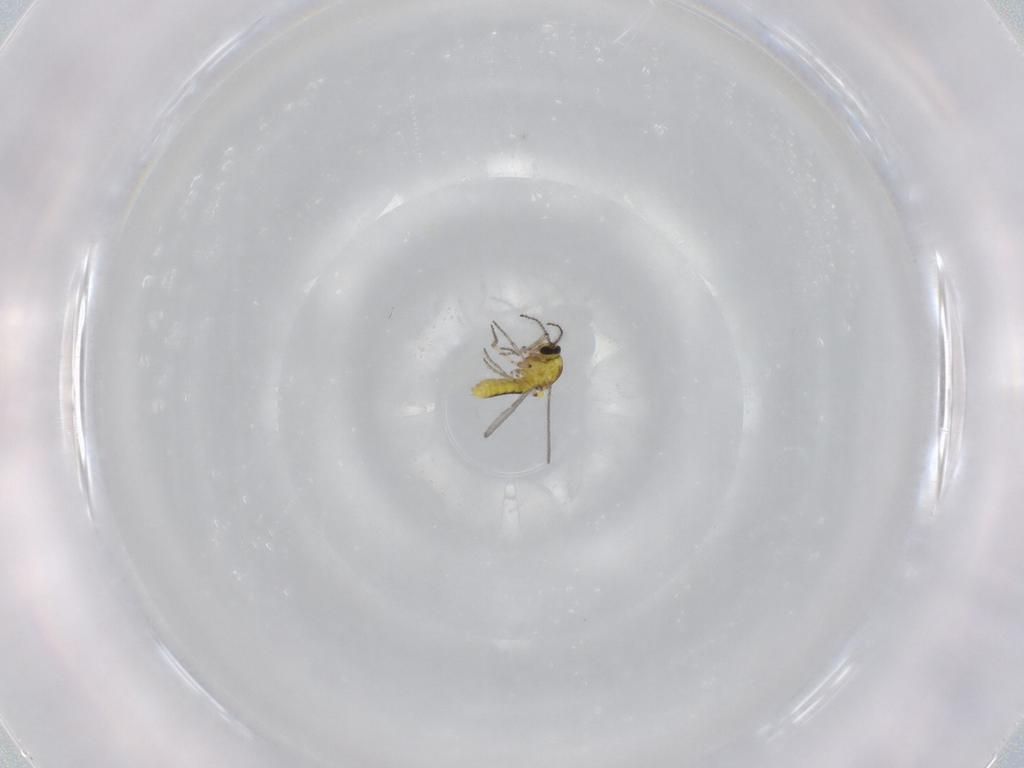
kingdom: Animalia
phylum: Arthropoda
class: Insecta
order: Diptera
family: Ceratopogonidae
